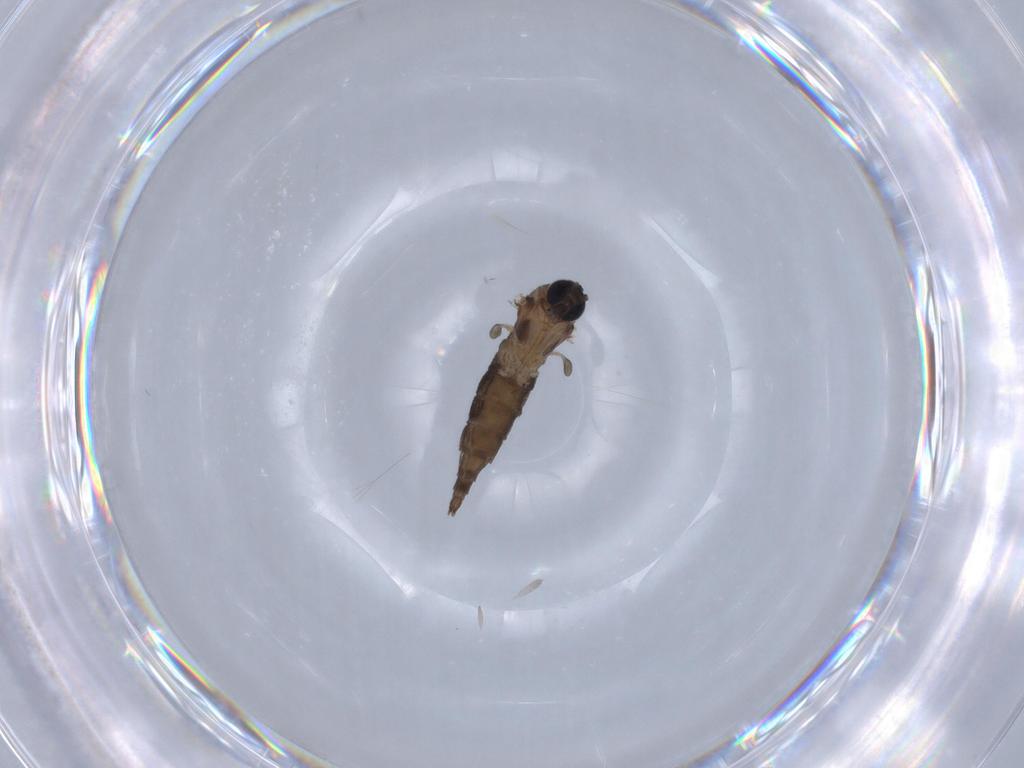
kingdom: Animalia
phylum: Arthropoda
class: Insecta
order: Diptera
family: Sciaridae
